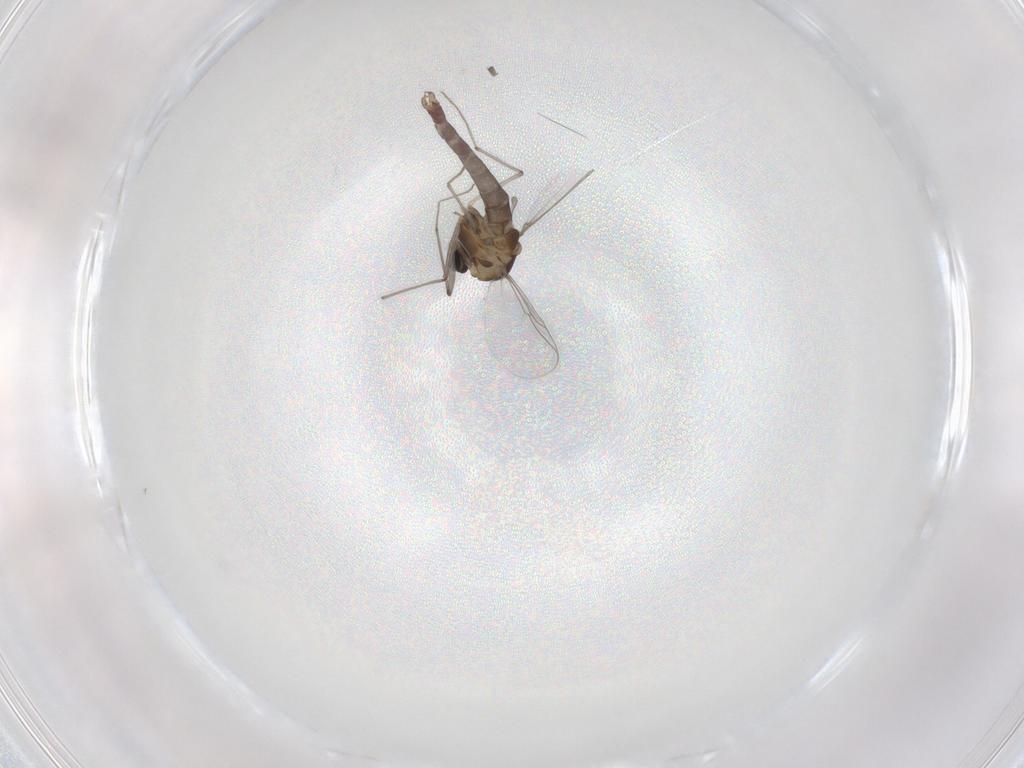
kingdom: Animalia
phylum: Arthropoda
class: Insecta
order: Diptera
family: Chironomidae
